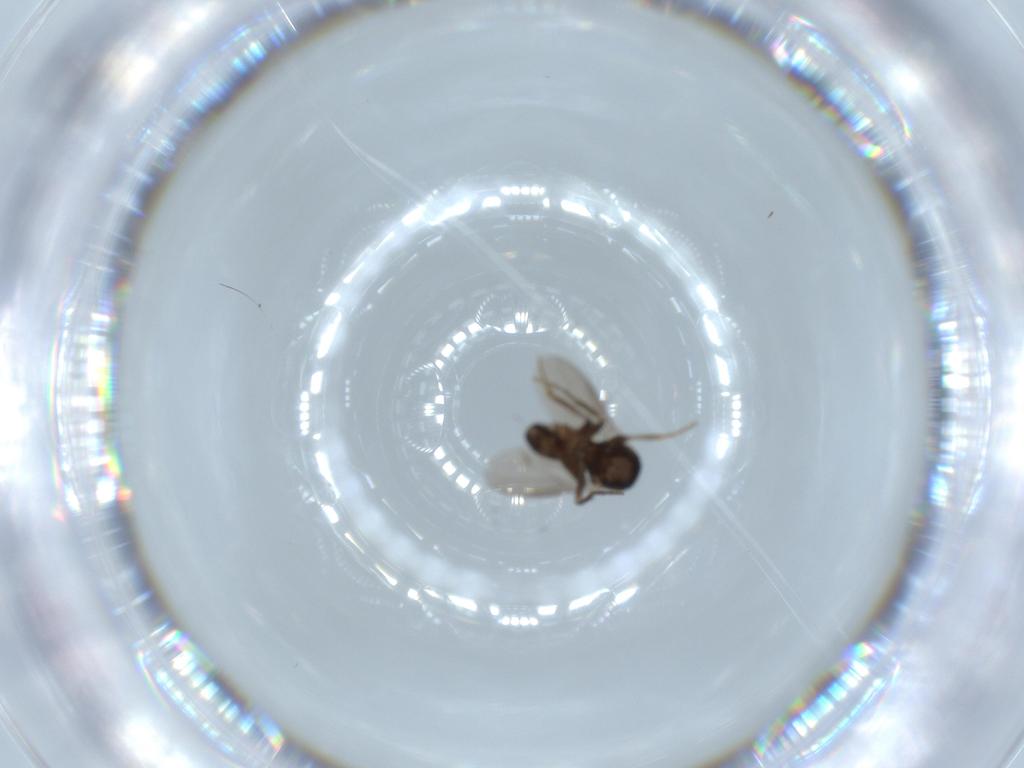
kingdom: Animalia
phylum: Arthropoda
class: Insecta
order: Diptera
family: Sphaeroceridae
